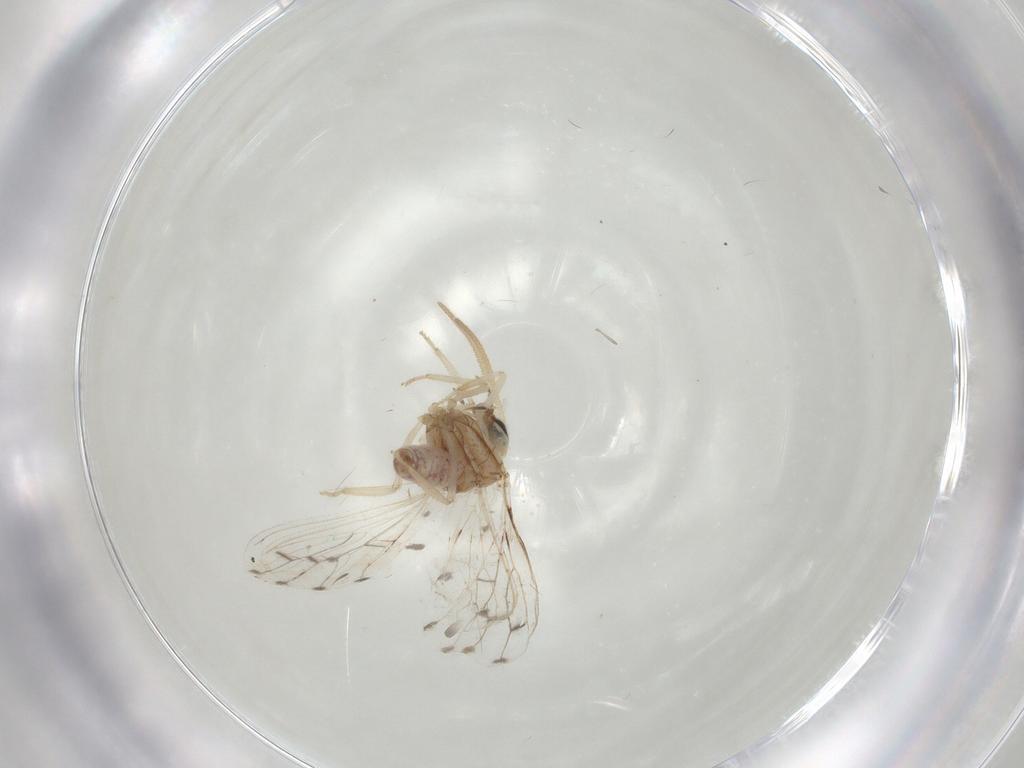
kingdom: Animalia
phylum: Arthropoda
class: Insecta
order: Neuroptera
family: Coniopterygidae
